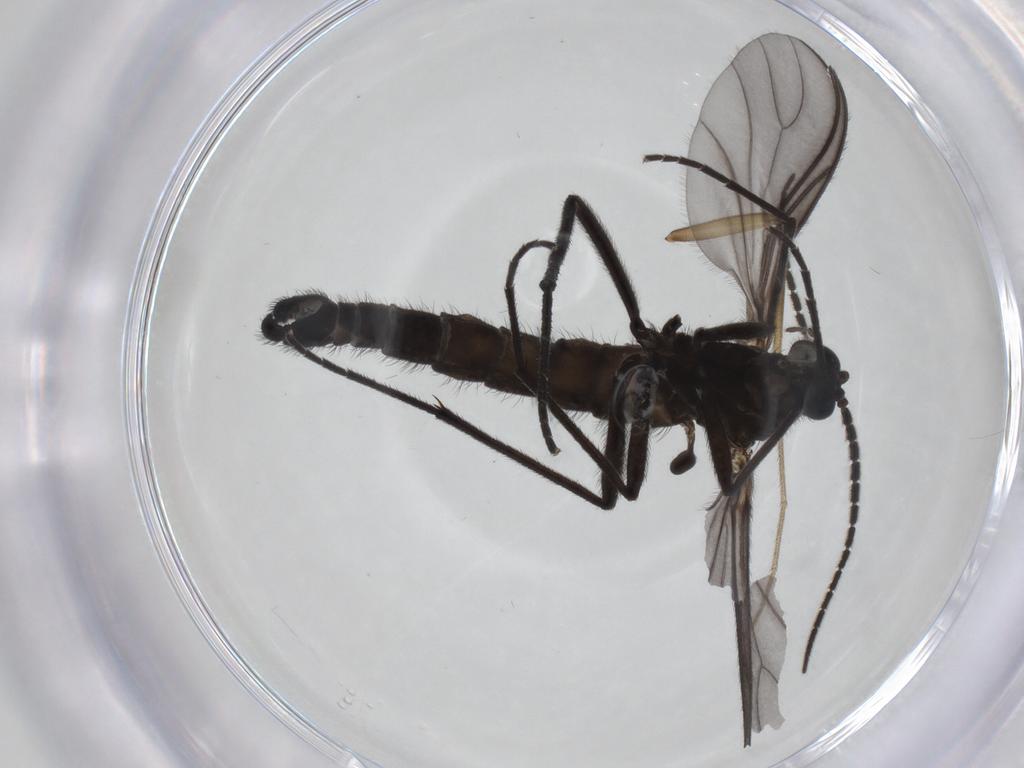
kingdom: Animalia
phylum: Arthropoda
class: Insecta
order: Diptera
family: Mycetophilidae
